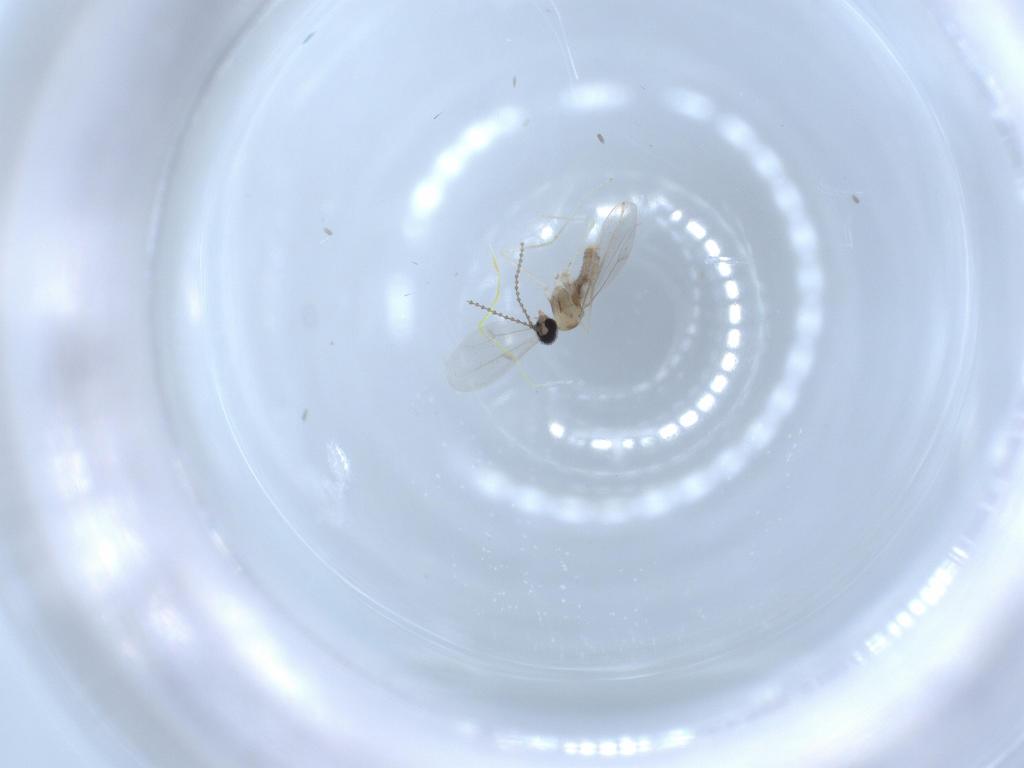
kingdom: Animalia
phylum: Arthropoda
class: Insecta
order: Diptera
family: Cecidomyiidae
